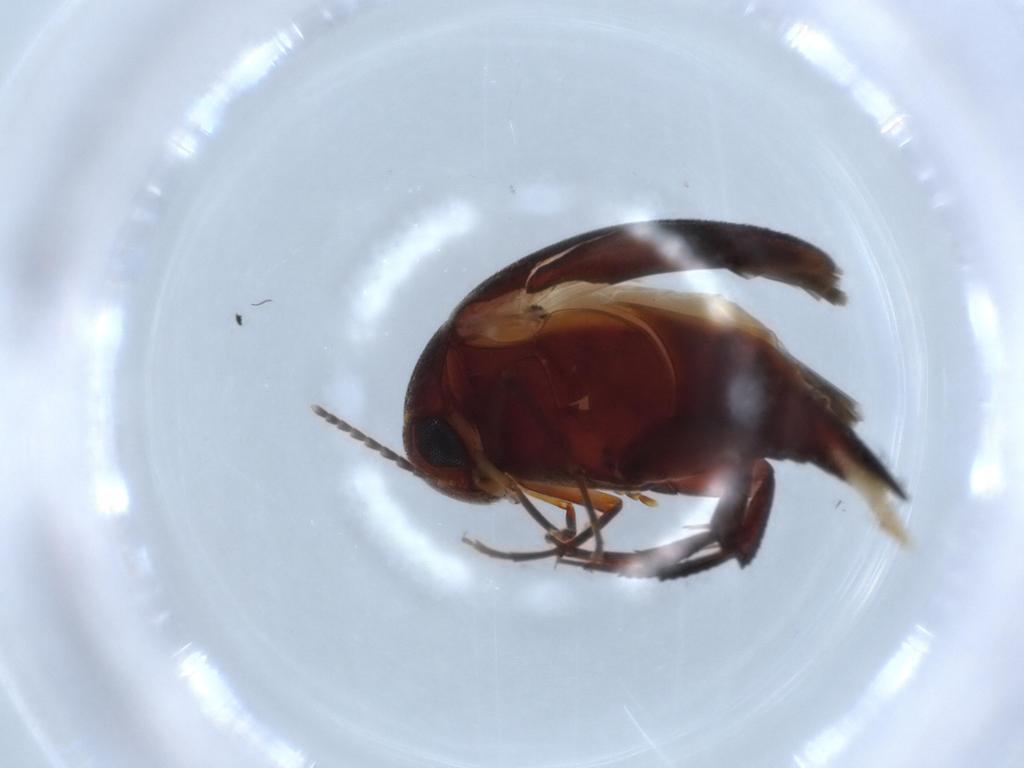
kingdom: Animalia
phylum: Arthropoda
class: Insecta
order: Coleoptera
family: Mordellidae
